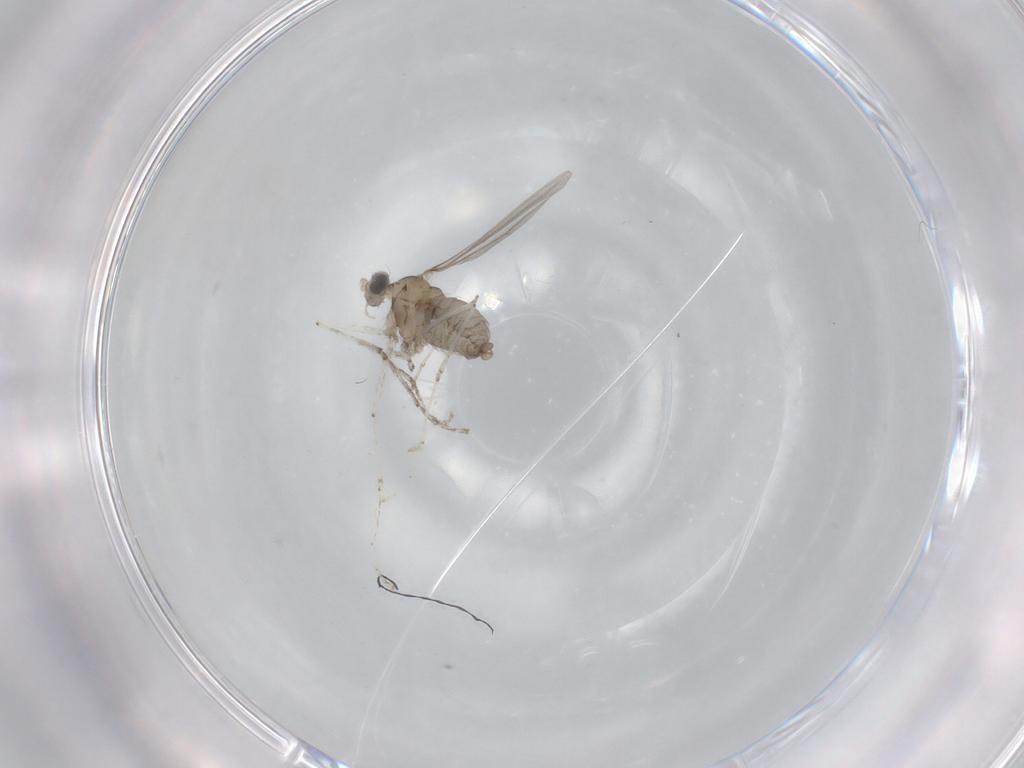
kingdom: Animalia
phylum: Arthropoda
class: Insecta
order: Diptera
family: Cecidomyiidae
